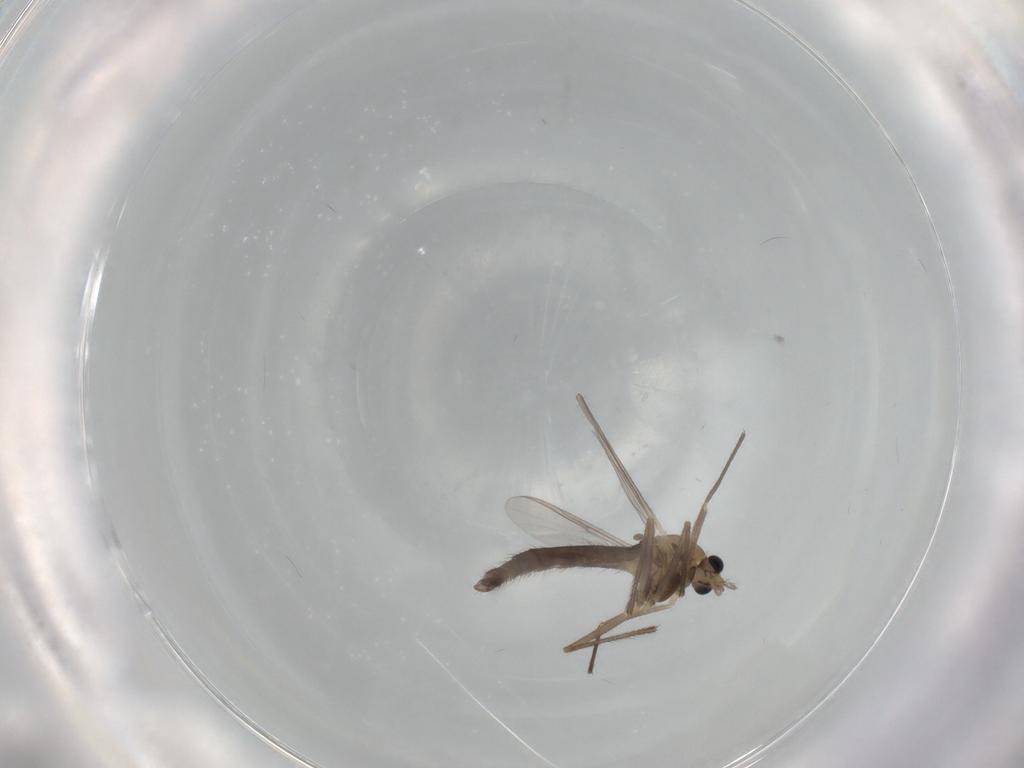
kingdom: Animalia
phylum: Arthropoda
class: Insecta
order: Diptera
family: Chironomidae
